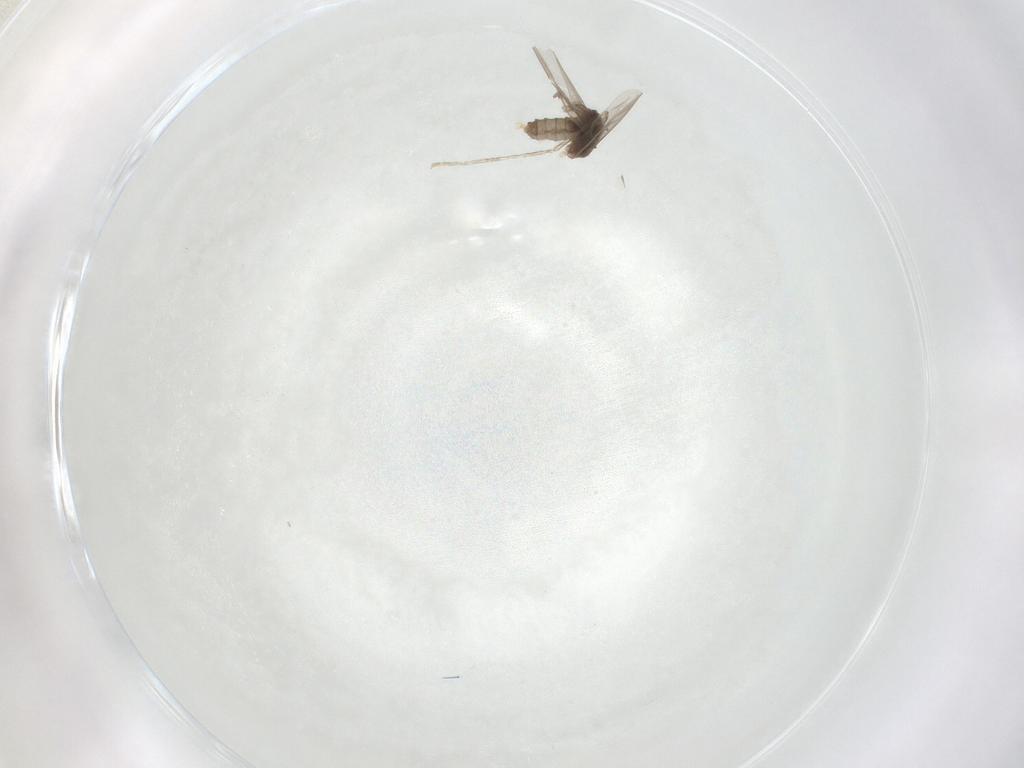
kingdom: Animalia
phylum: Arthropoda
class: Insecta
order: Diptera
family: Cecidomyiidae
